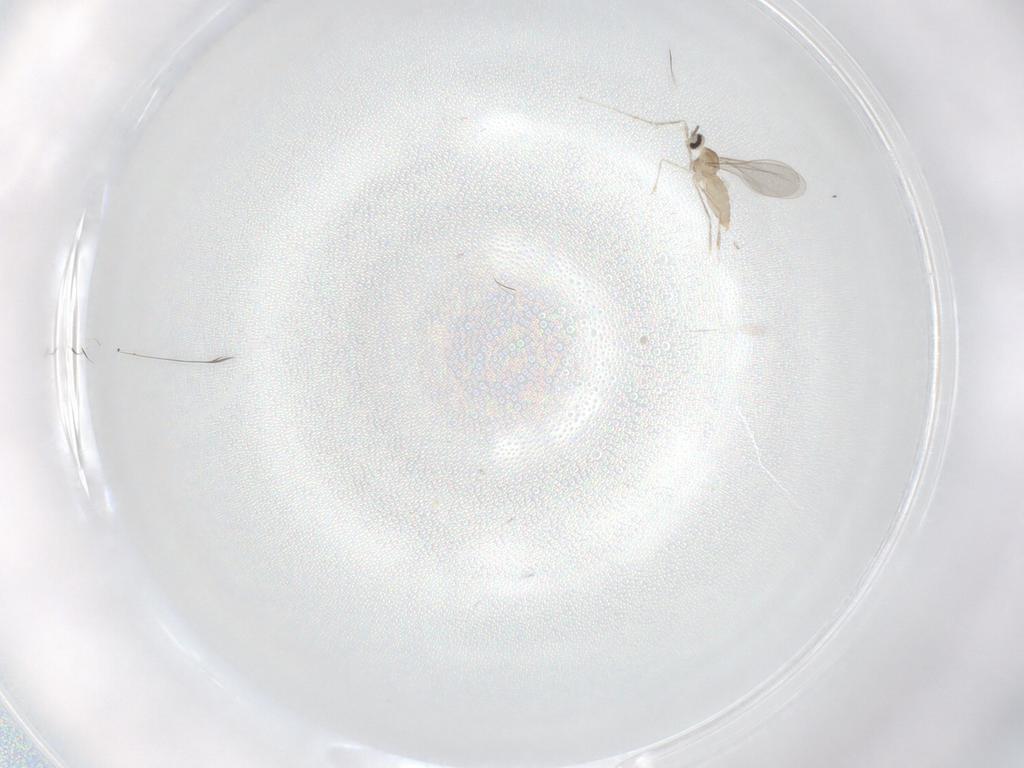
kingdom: Animalia
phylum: Arthropoda
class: Insecta
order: Diptera
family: Cecidomyiidae
